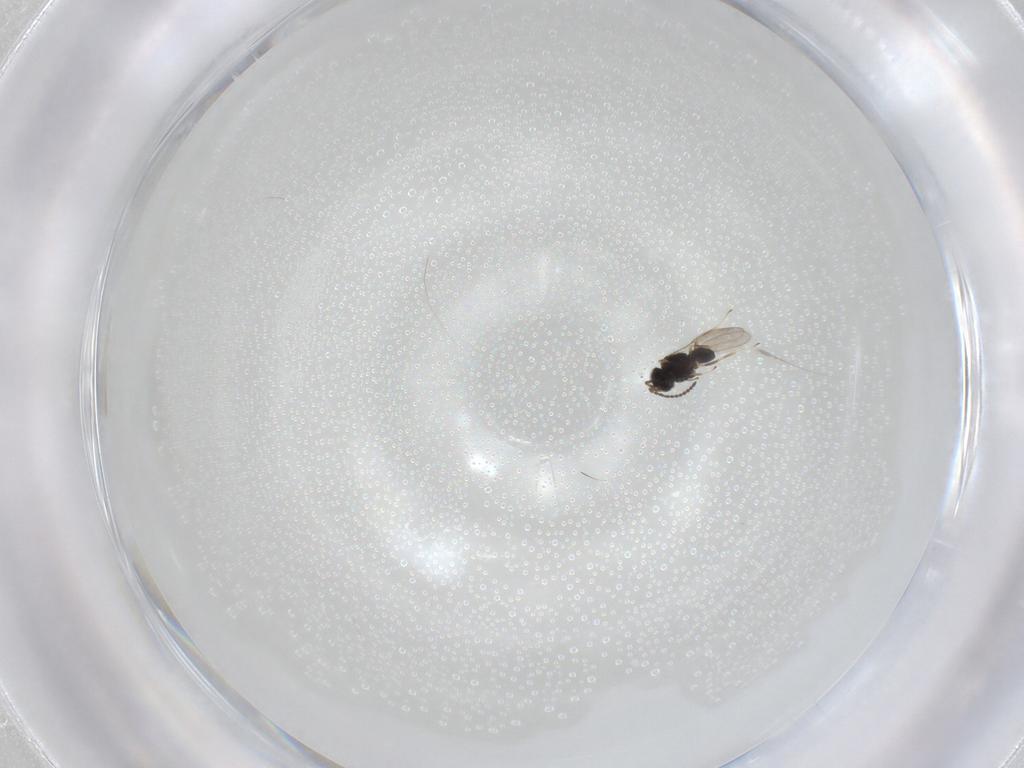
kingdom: Animalia
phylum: Arthropoda
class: Insecta
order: Hymenoptera
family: Scelionidae
